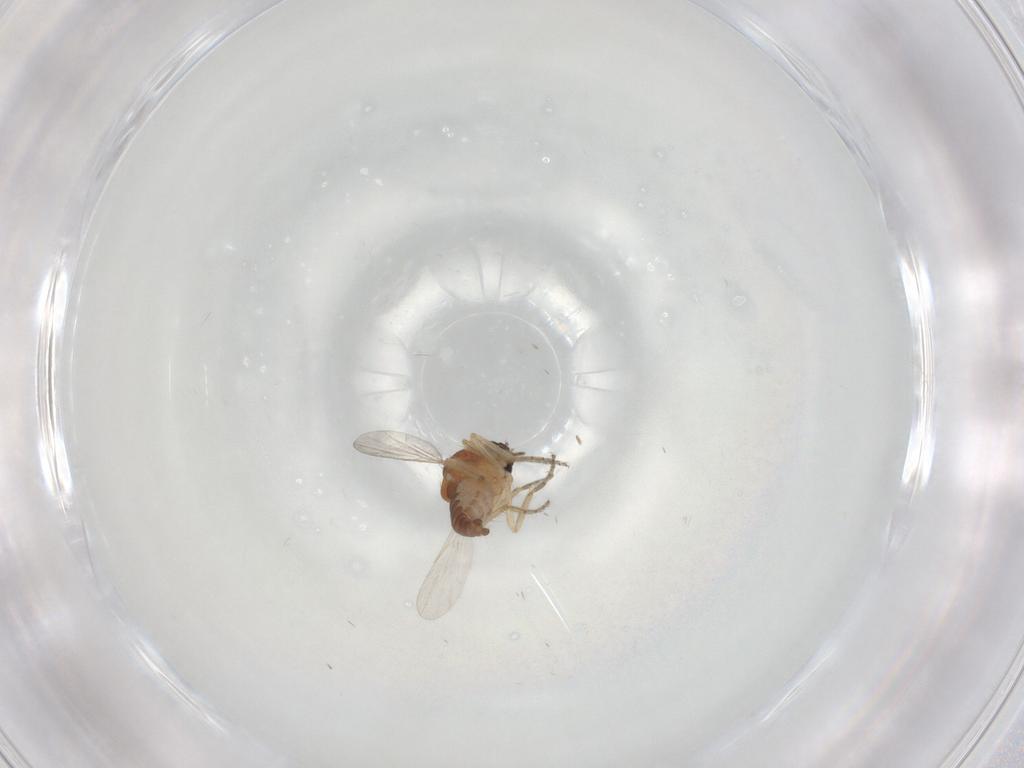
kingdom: Animalia
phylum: Arthropoda
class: Insecta
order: Diptera
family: Ceratopogonidae
